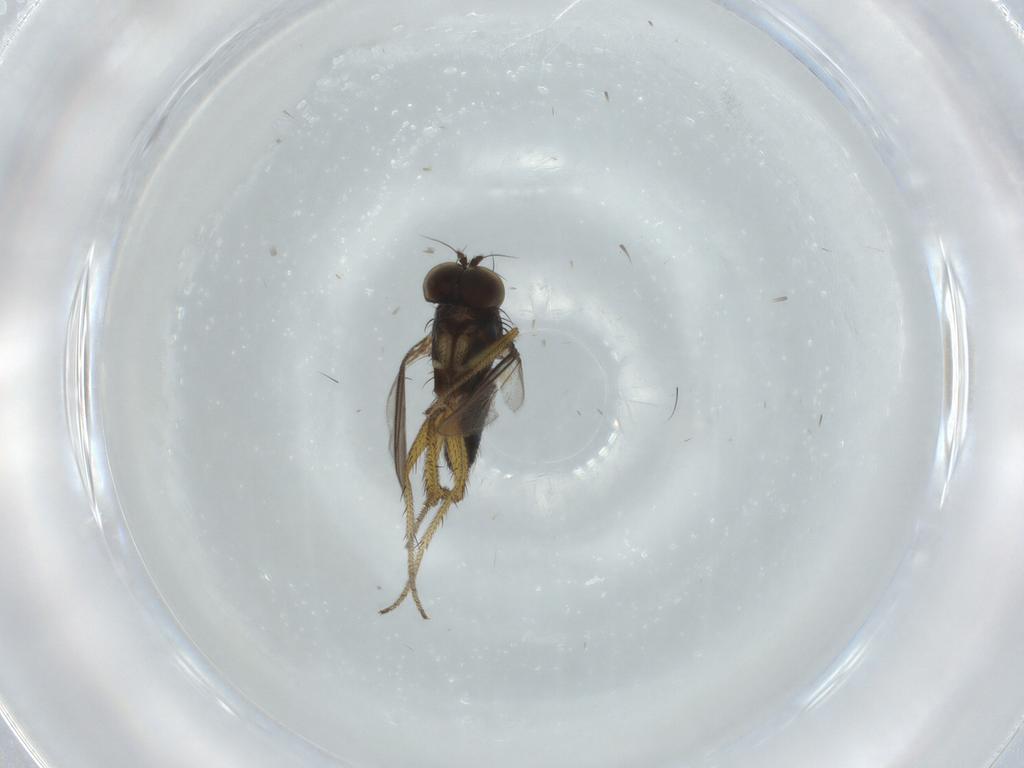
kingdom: Animalia
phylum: Arthropoda
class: Insecta
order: Diptera
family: Dolichopodidae
